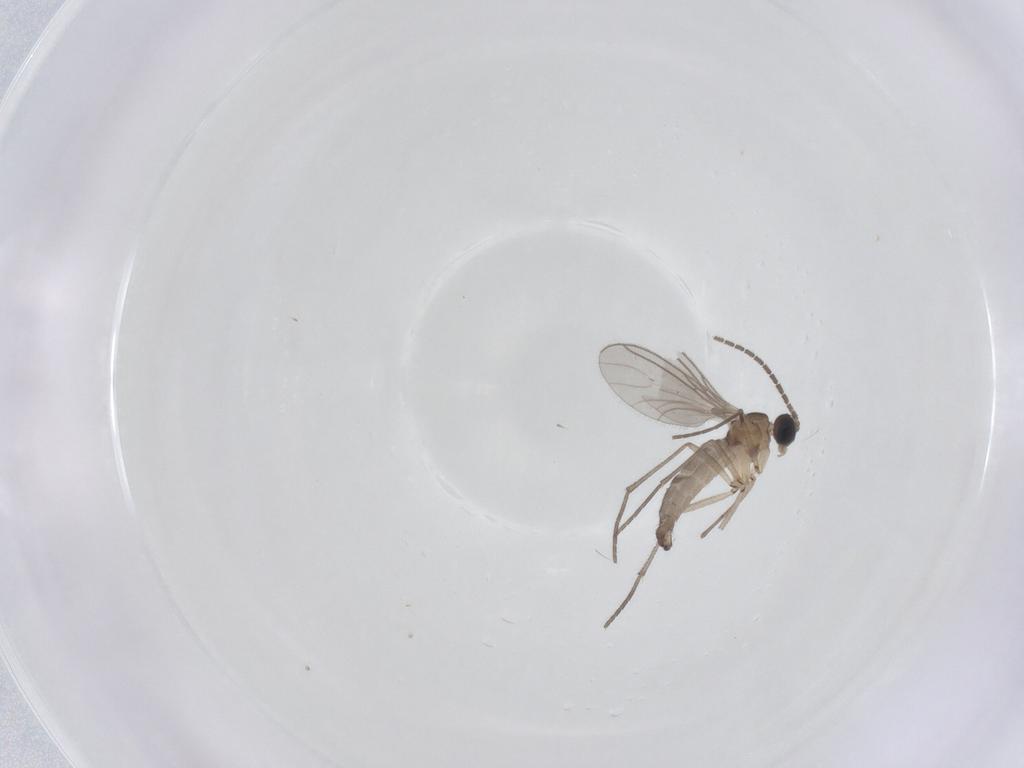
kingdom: Animalia
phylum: Arthropoda
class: Insecta
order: Diptera
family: Sciaridae
